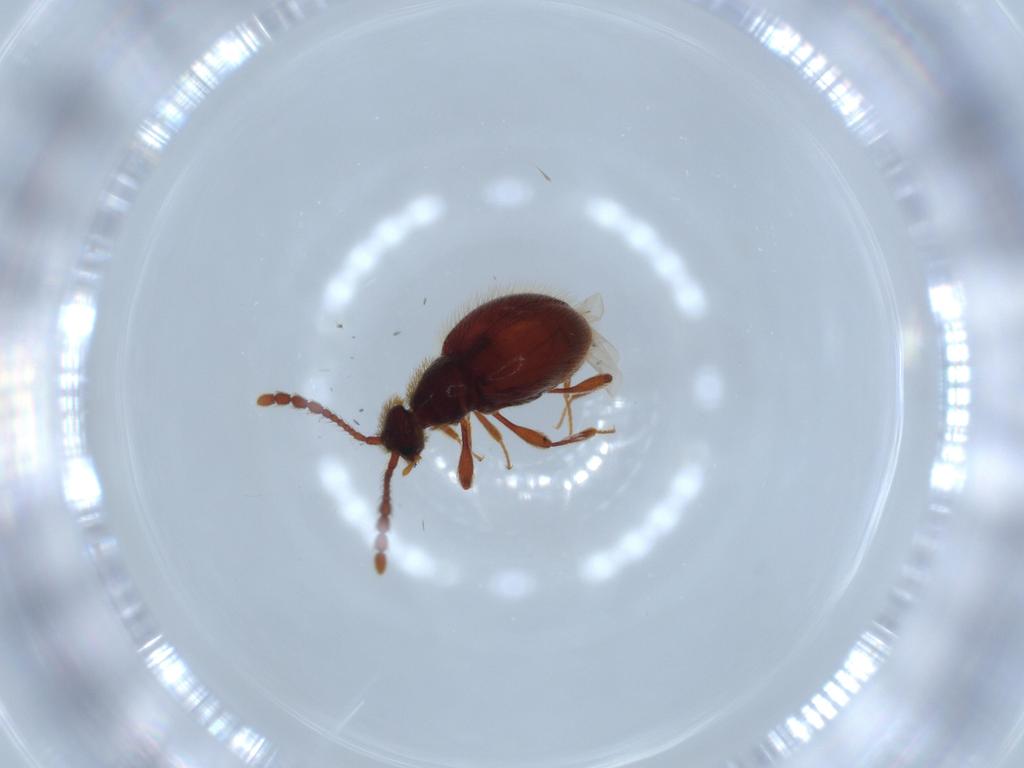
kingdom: Animalia
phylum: Arthropoda
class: Insecta
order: Coleoptera
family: Staphylinidae
